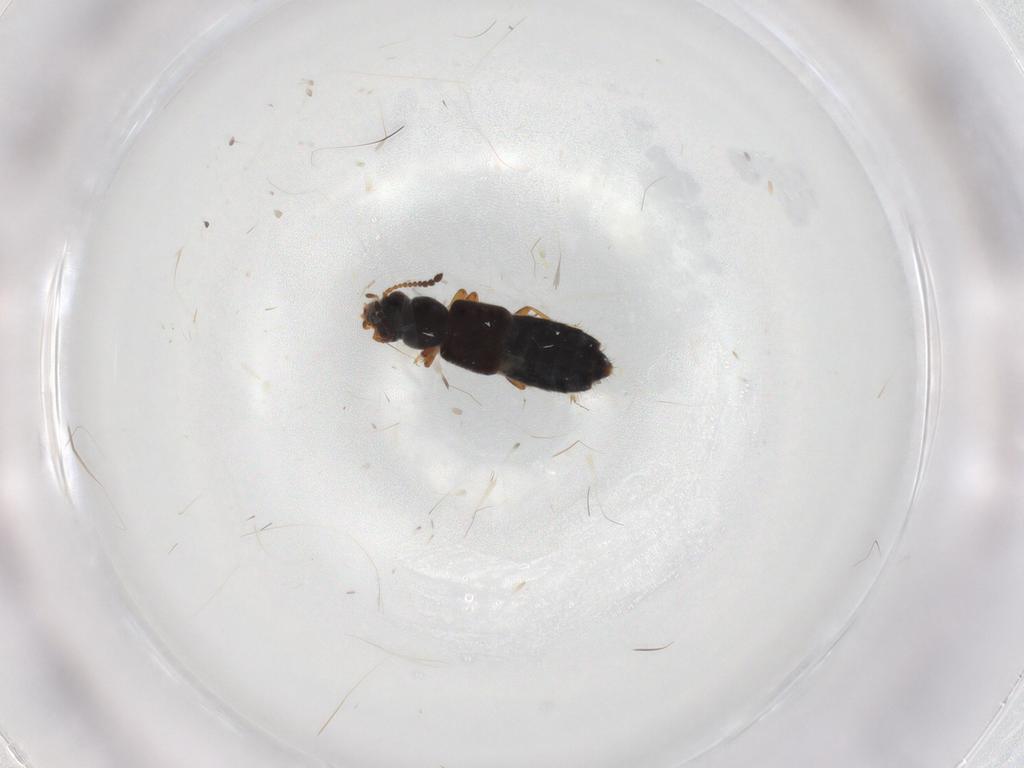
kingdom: Animalia
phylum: Arthropoda
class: Insecta
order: Coleoptera
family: Staphylinidae
